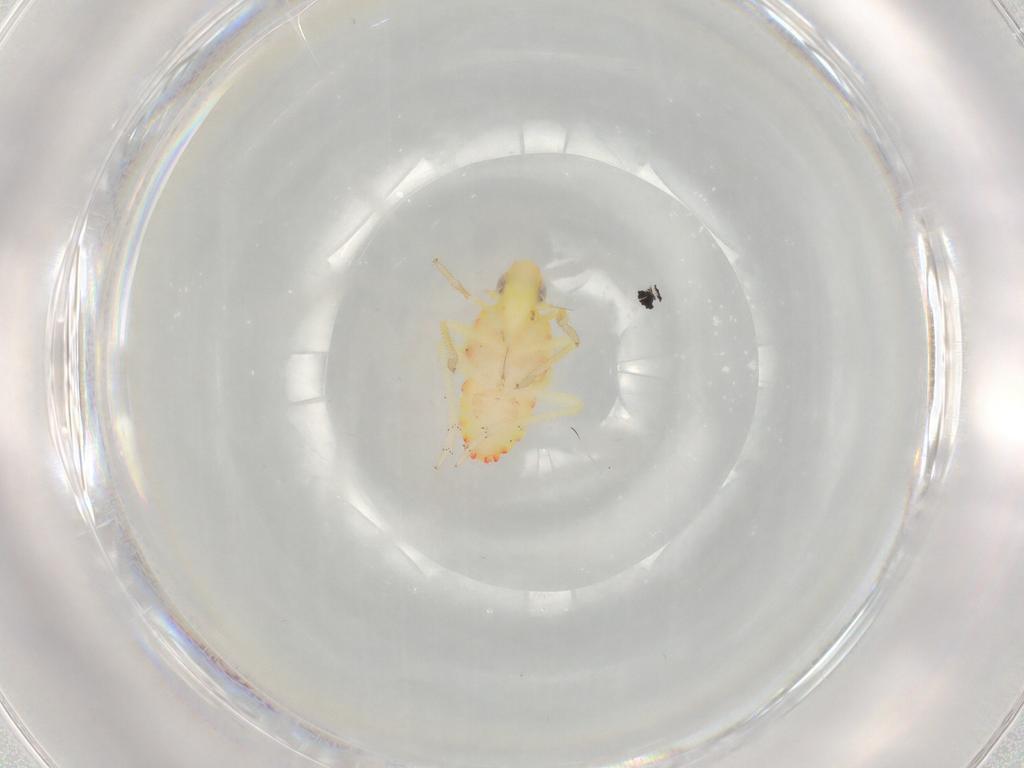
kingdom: Animalia
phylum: Arthropoda
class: Insecta
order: Hemiptera
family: Tropiduchidae
